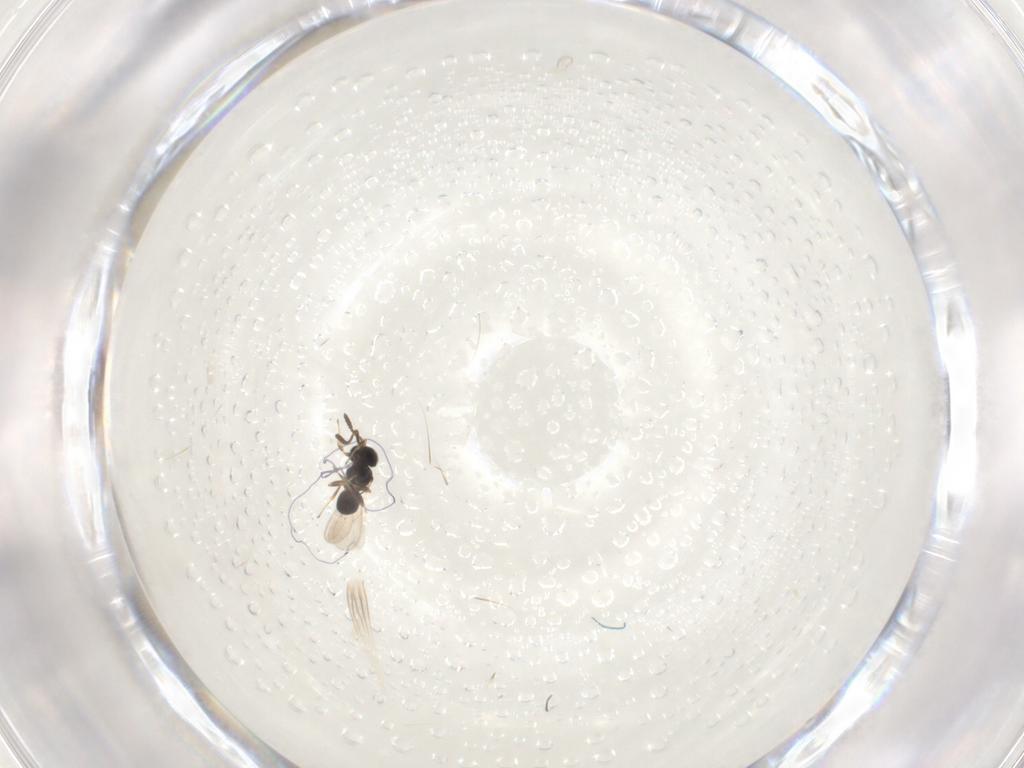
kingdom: Animalia
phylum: Arthropoda
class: Insecta
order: Hymenoptera
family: Scelionidae
